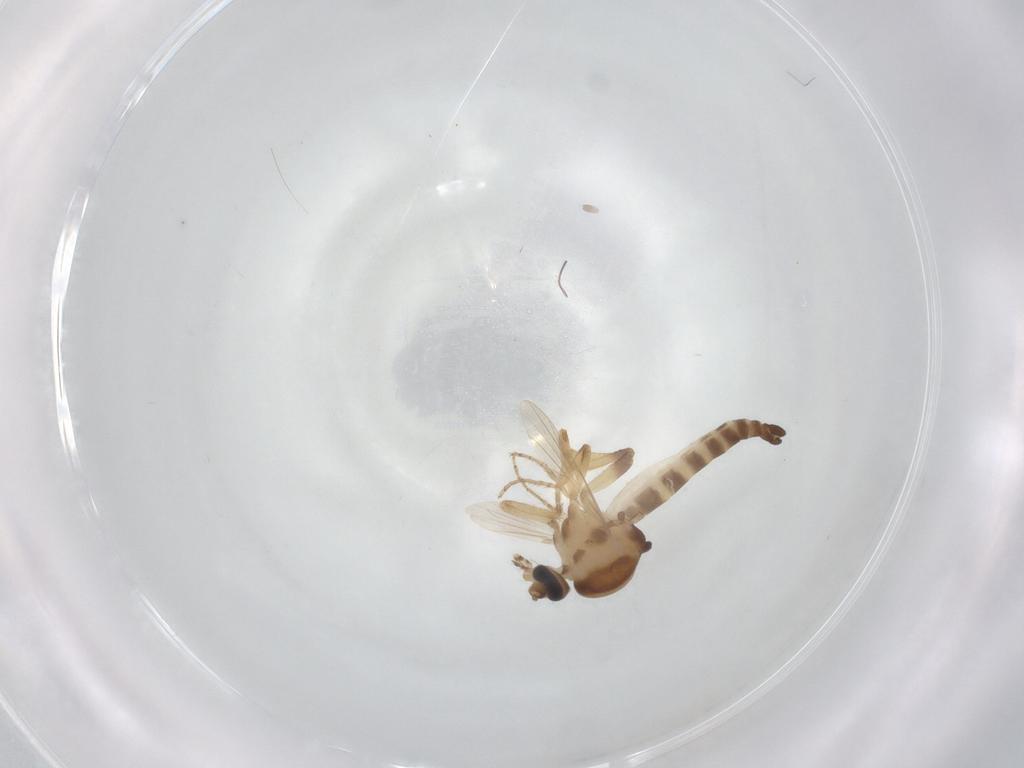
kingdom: Animalia
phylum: Arthropoda
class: Insecta
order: Diptera
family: Ceratopogonidae
